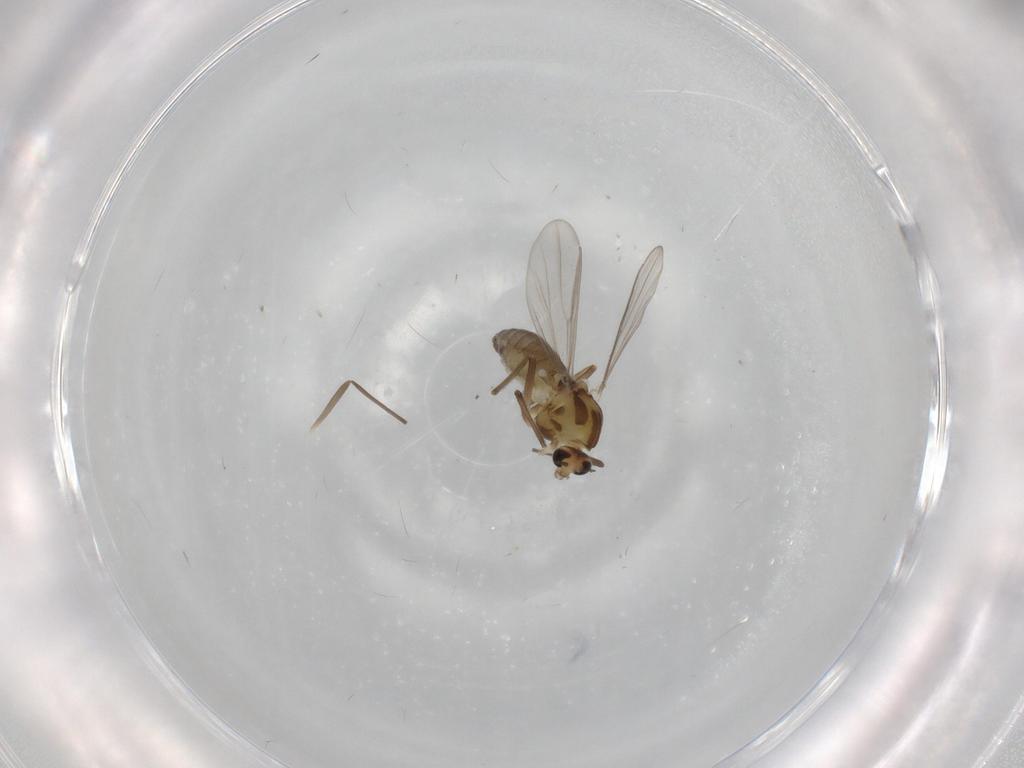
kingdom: Animalia
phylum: Arthropoda
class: Insecta
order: Diptera
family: Chironomidae
